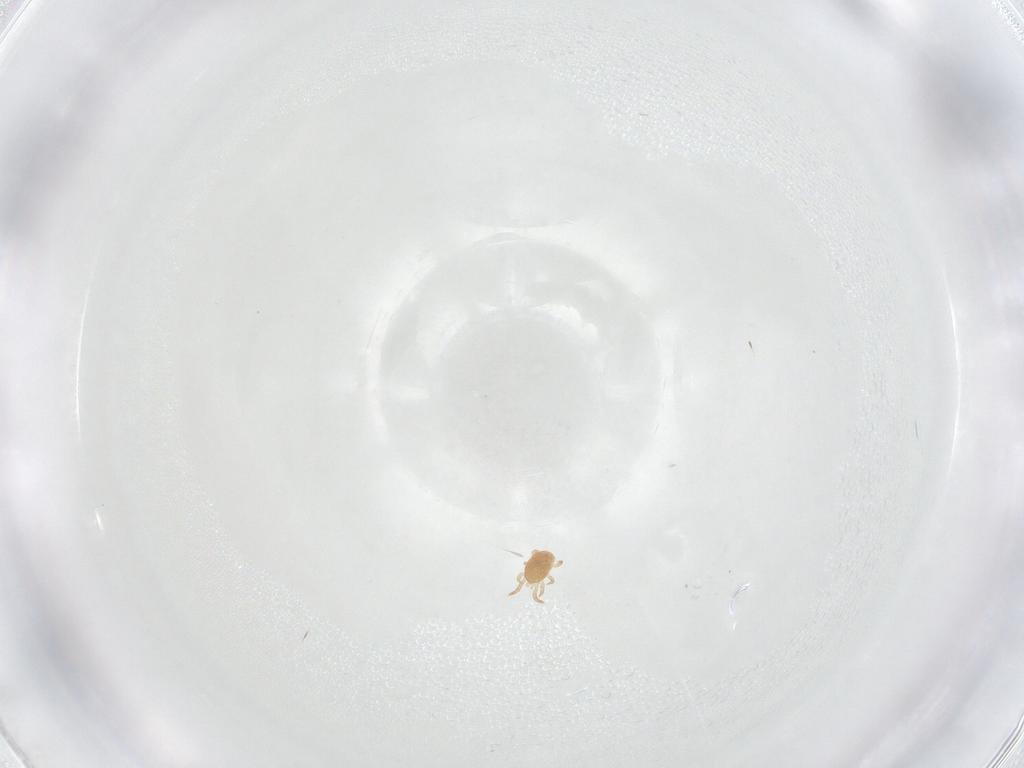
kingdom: Animalia
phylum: Arthropoda
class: Arachnida
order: Mesostigmata
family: Ameroseiidae
